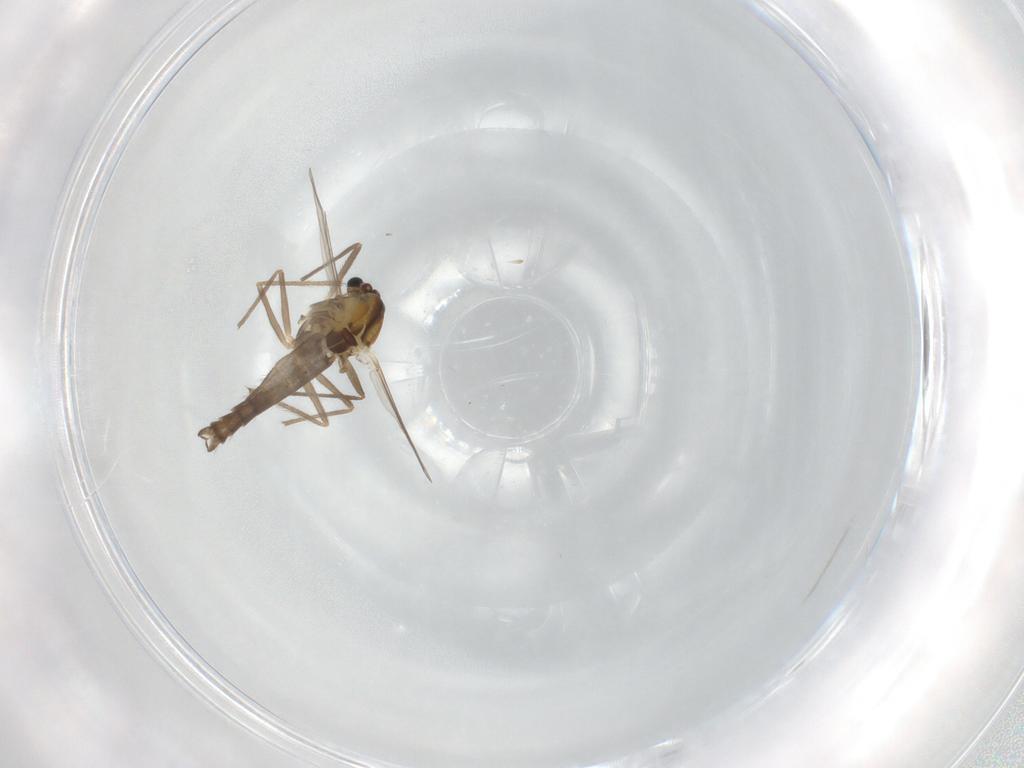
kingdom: Animalia
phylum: Arthropoda
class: Insecta
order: Diptera
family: Chironomidae
